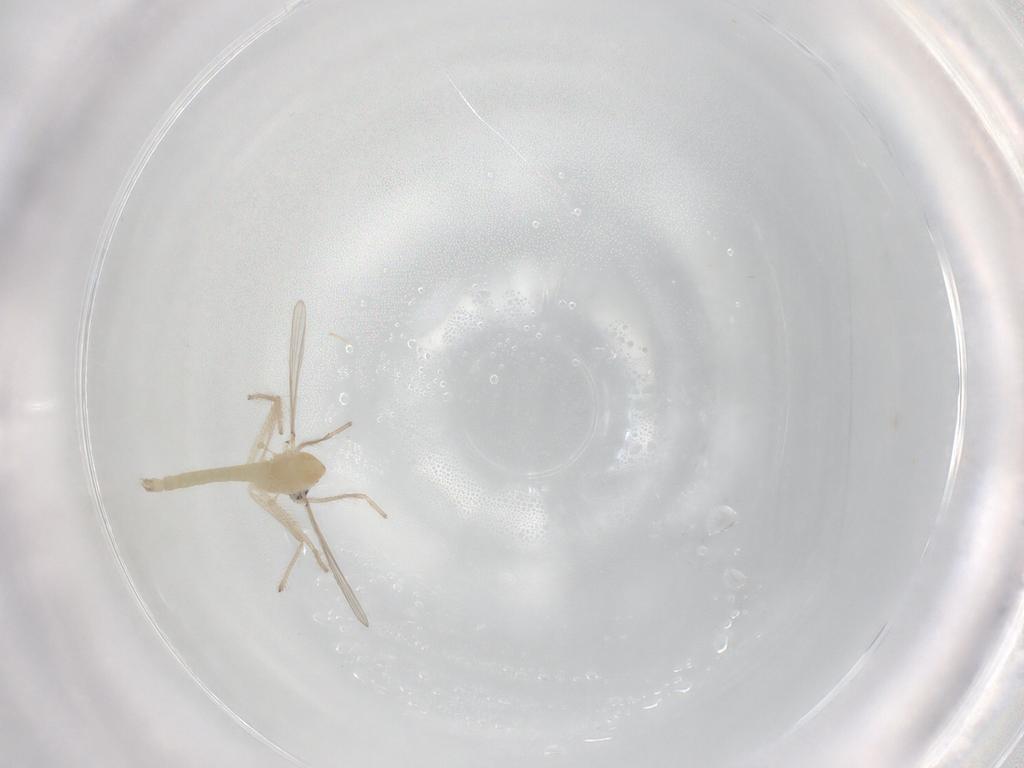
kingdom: Animalia
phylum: Arthropoda
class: Insecta
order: Diptera
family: Chironomidae
